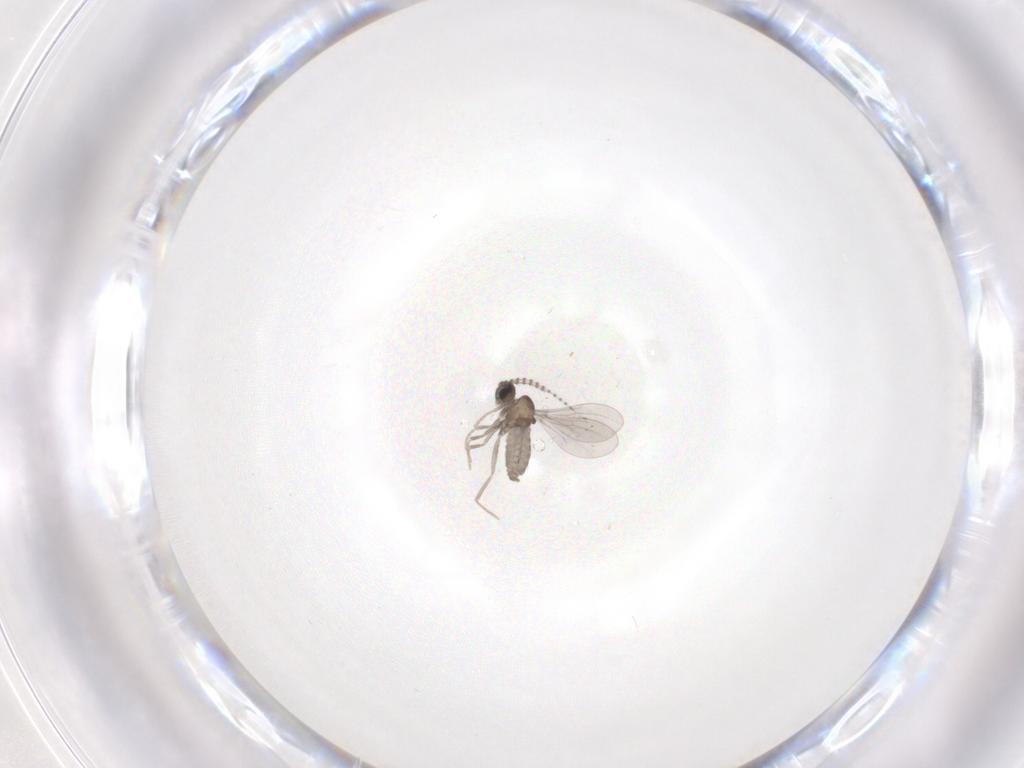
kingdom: Animalia
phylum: Arthropoda
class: Insecta
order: Diptera
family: Cecidomyiidae
